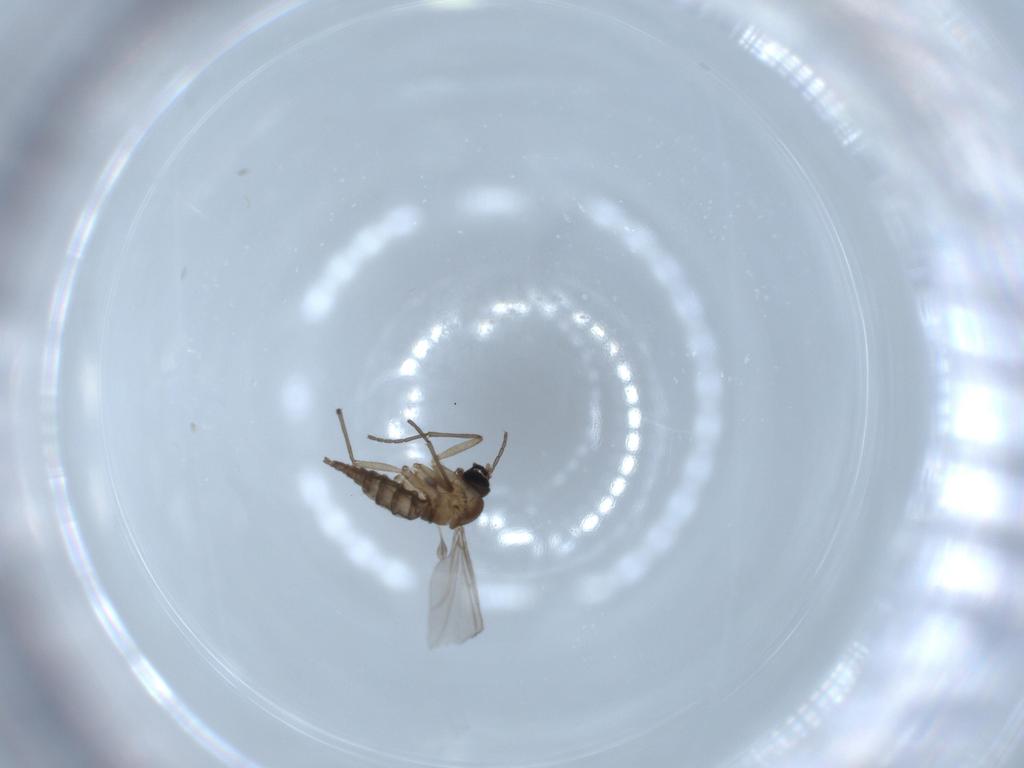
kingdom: Animalia
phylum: Arthropoda
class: Insecta
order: Diptera
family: Sciaridae
